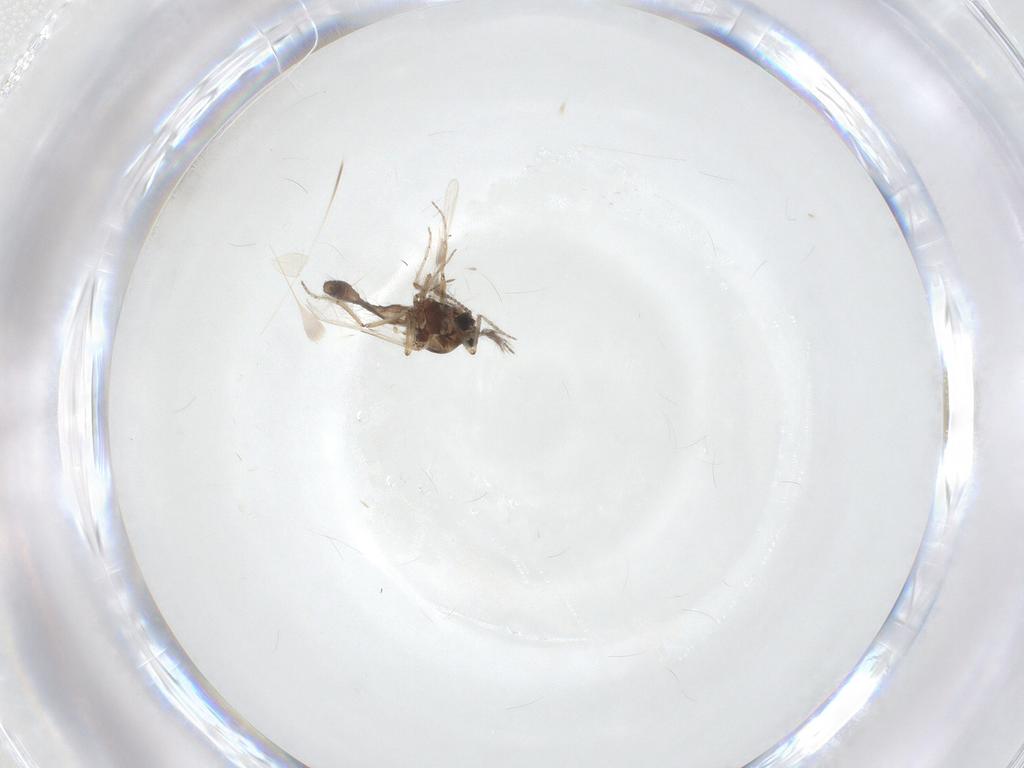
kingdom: Animalia
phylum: Arthropoda
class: Insecta
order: Diptera
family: Ceratopogonidae
